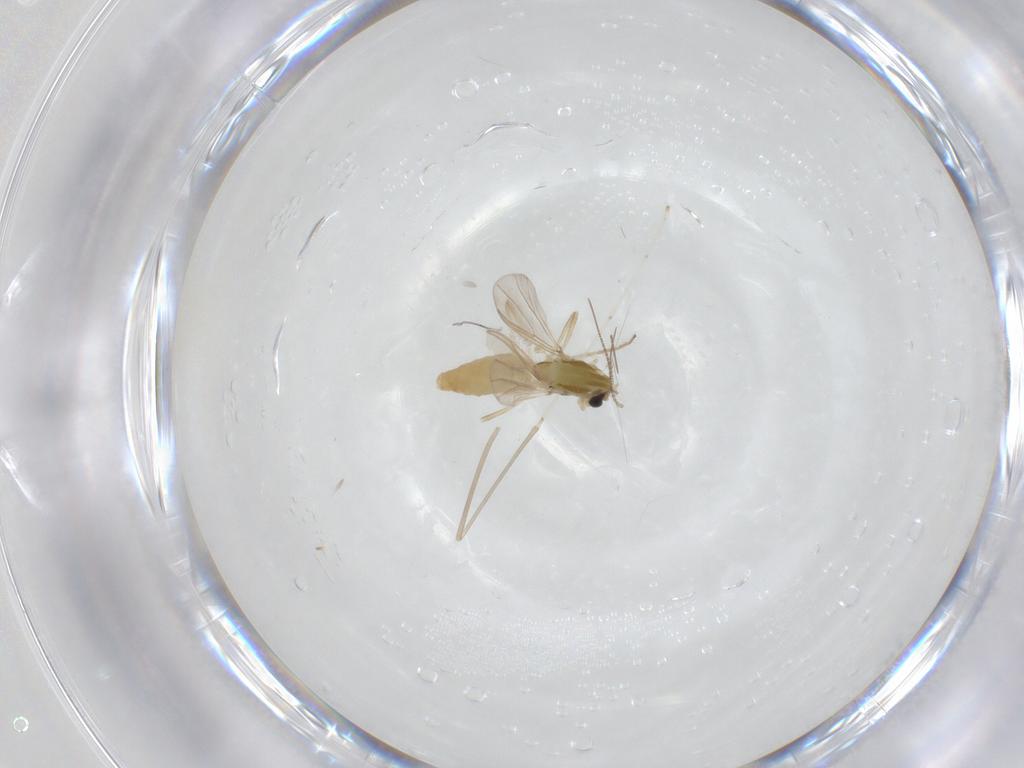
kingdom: Animalia
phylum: Arthropoda
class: Insecta
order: Diptera
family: Chironomidae
